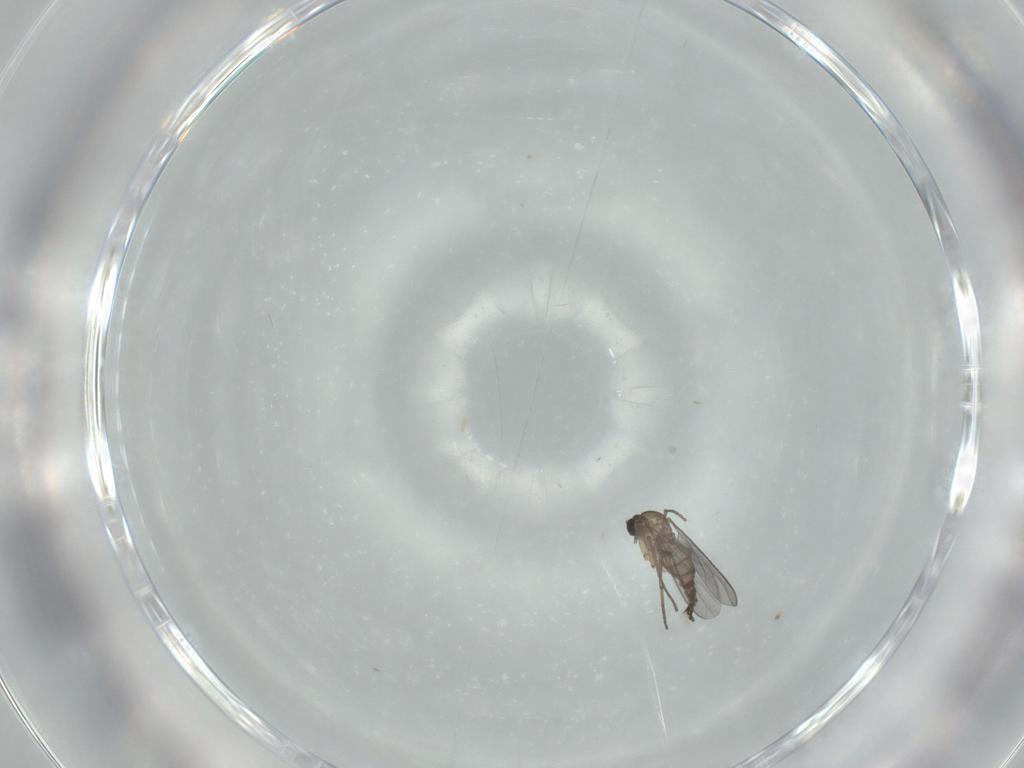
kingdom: Animalia
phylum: Arthropoda
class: Insecta
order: Diptera
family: Sciaridae
